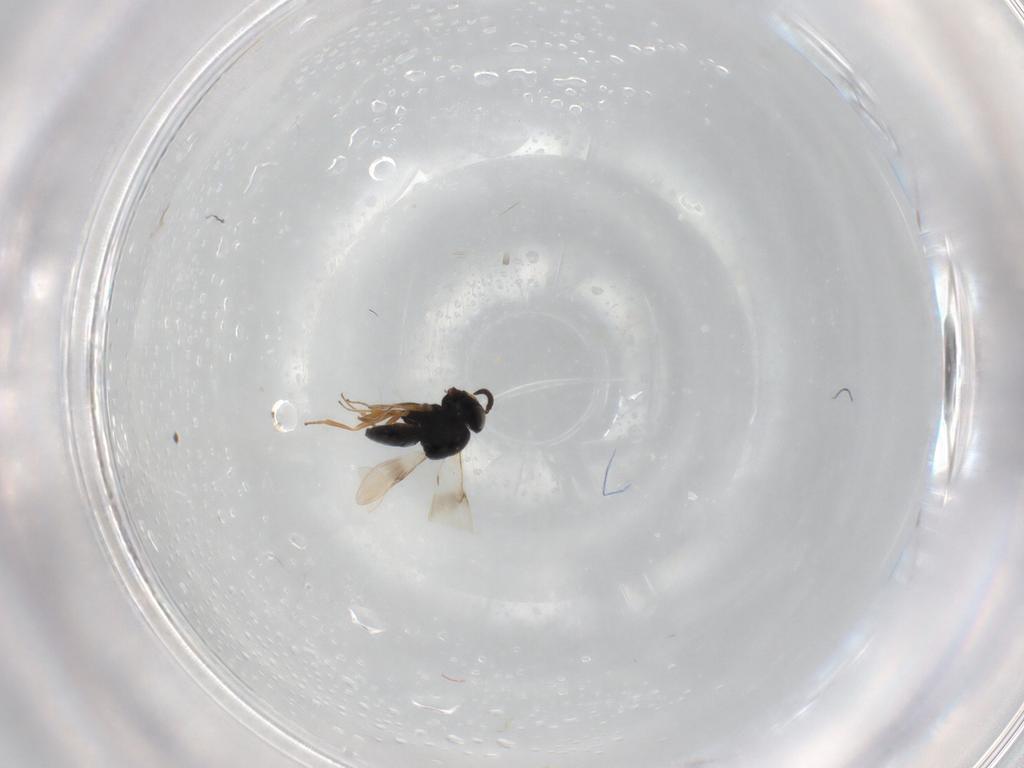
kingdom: Animalia
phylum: Arthropoda
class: Insecta
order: Hymenoptera
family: Scelionidae
